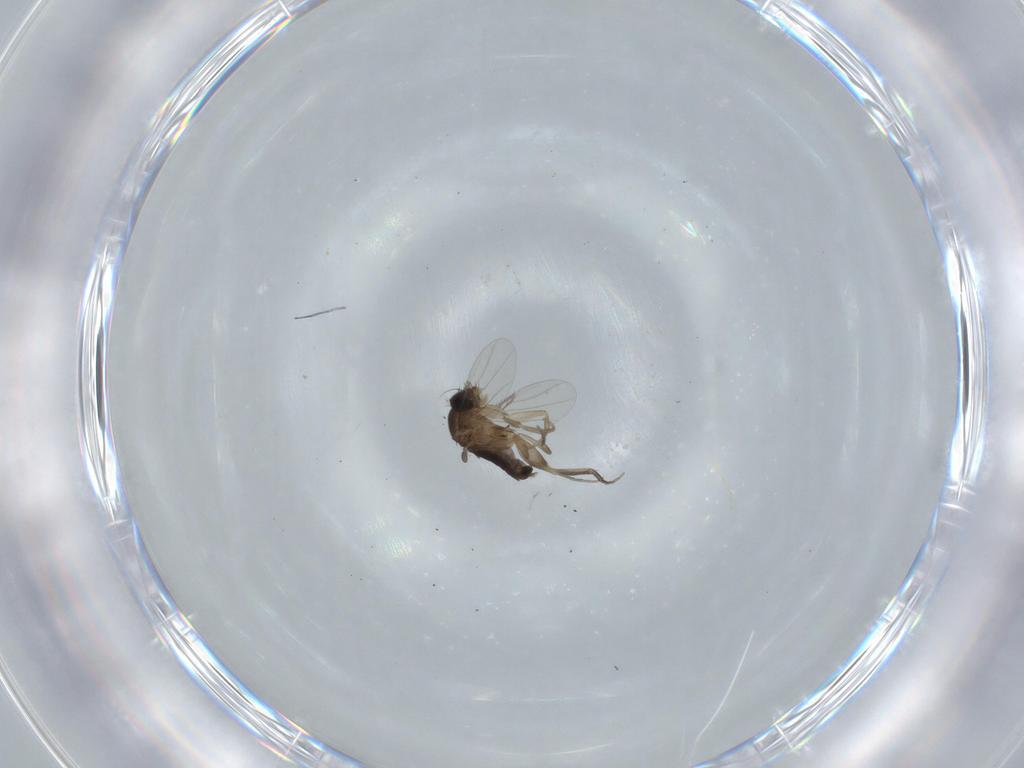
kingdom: Animalia
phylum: Arthropoda
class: Insecta
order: Diptera
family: Phoridae
